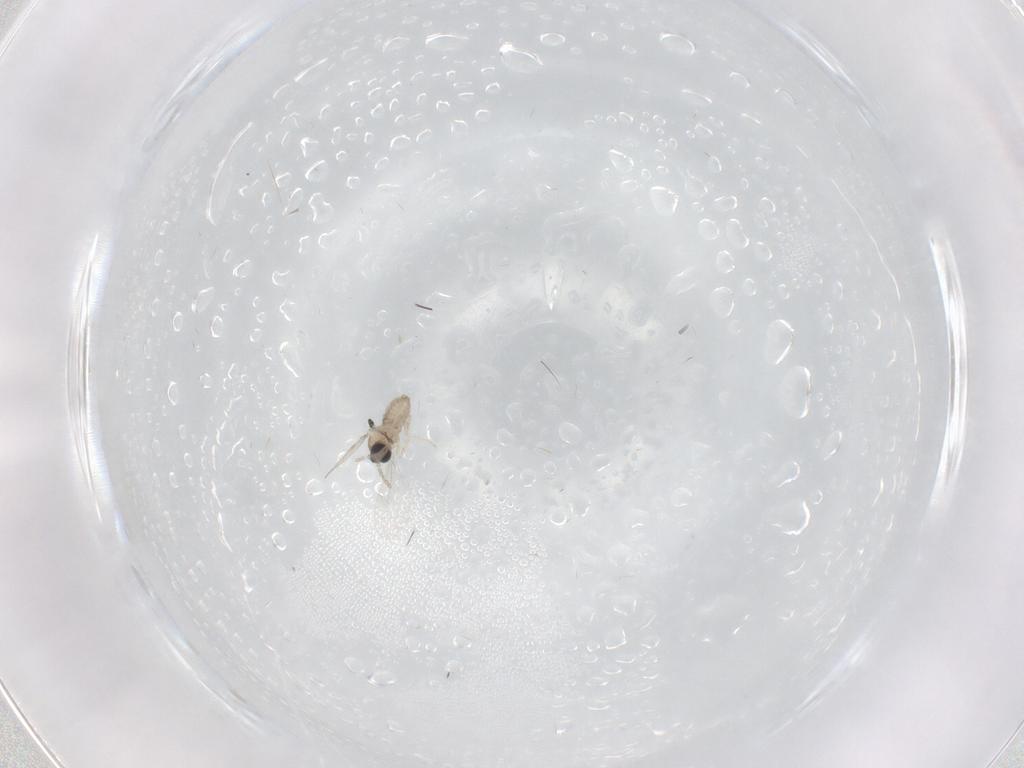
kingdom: Animalia
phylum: Arthropoda
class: Insecta
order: Diptera
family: Cecidomyiidae
